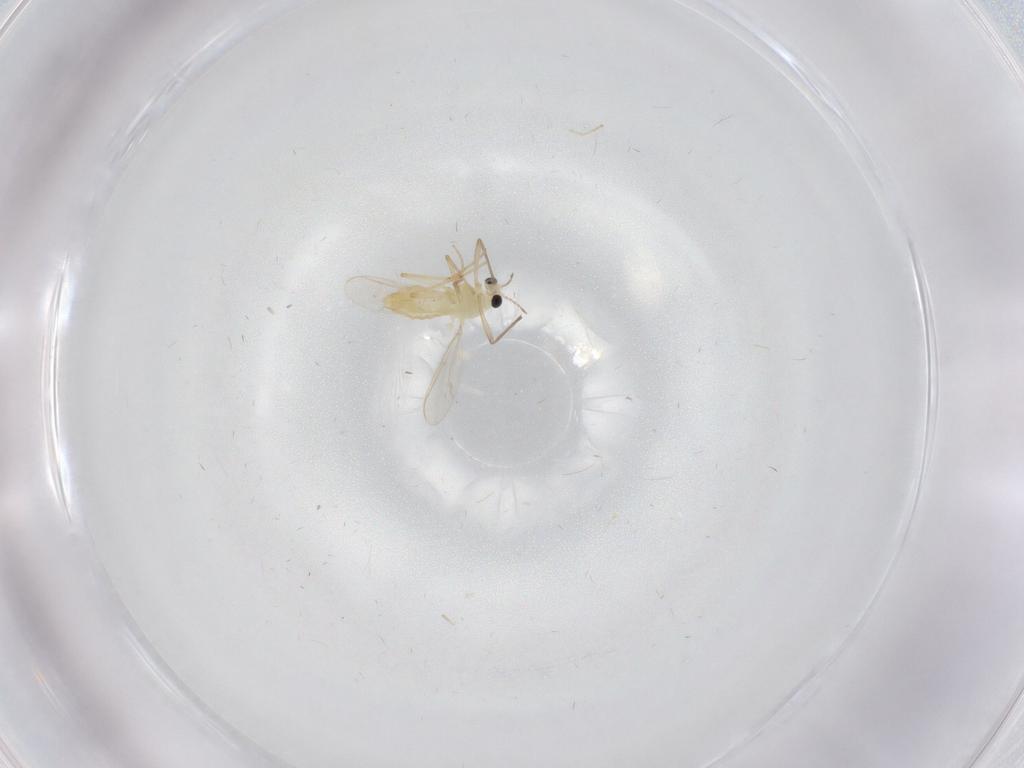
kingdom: Animalia
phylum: Arthropoda
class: Insecta
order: Diptera
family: Chironomidae
